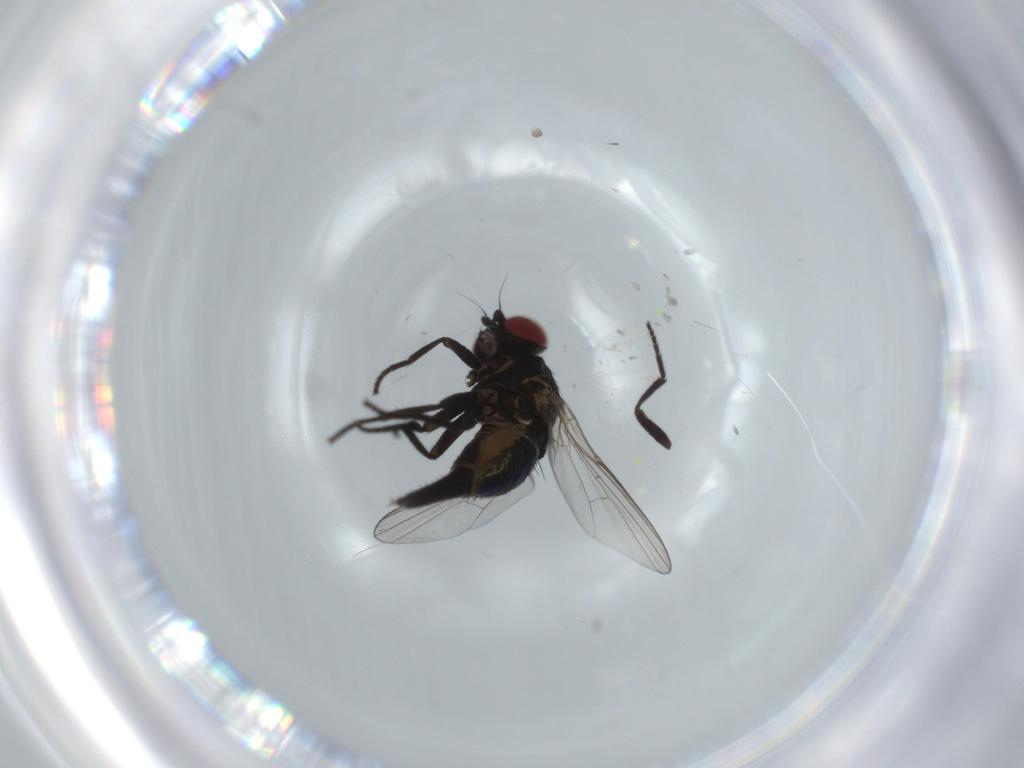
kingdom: Animalia
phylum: Arthropoda
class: Insecta
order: Diptera
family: Agromyzidae
